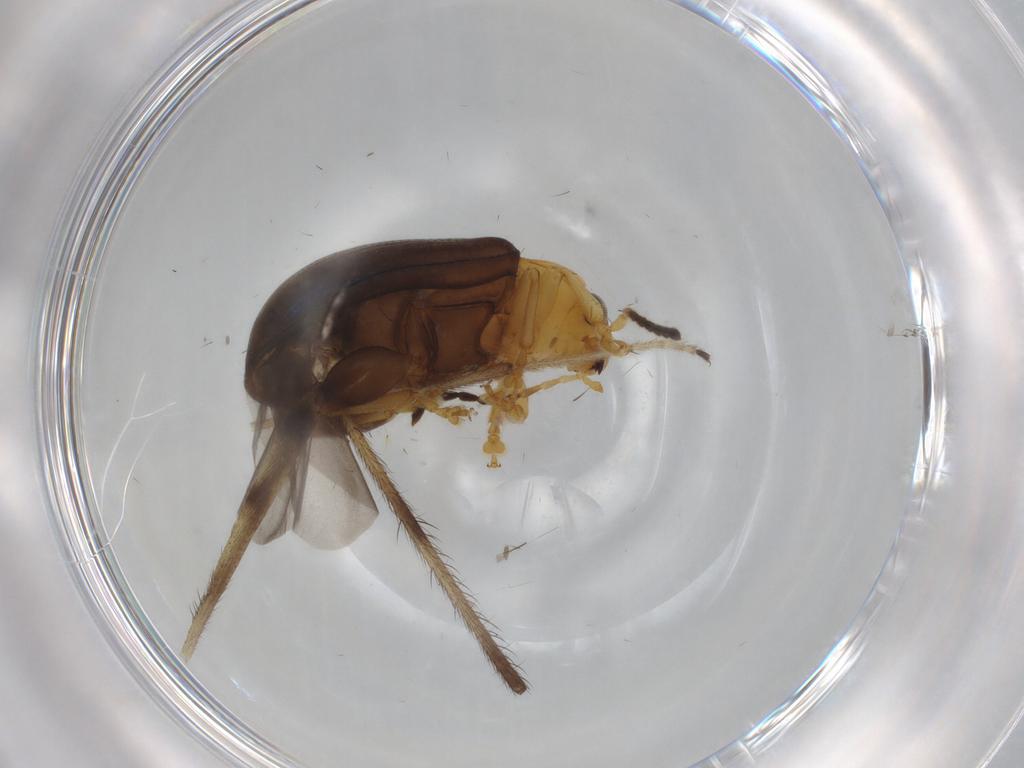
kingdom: Animalia
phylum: Arthropoda
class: Insecta
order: Coleoptera
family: Chrysomelidae
